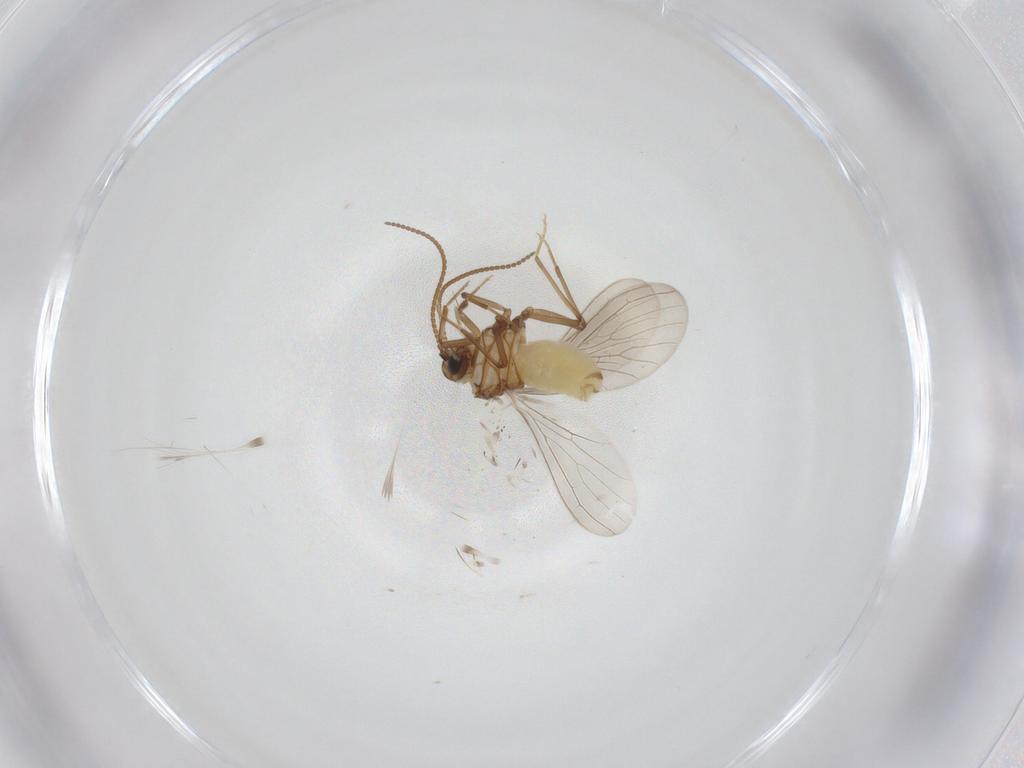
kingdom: Animalia
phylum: Arthropoda
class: Insecta
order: Neuroptera
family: Coniopterygidae
